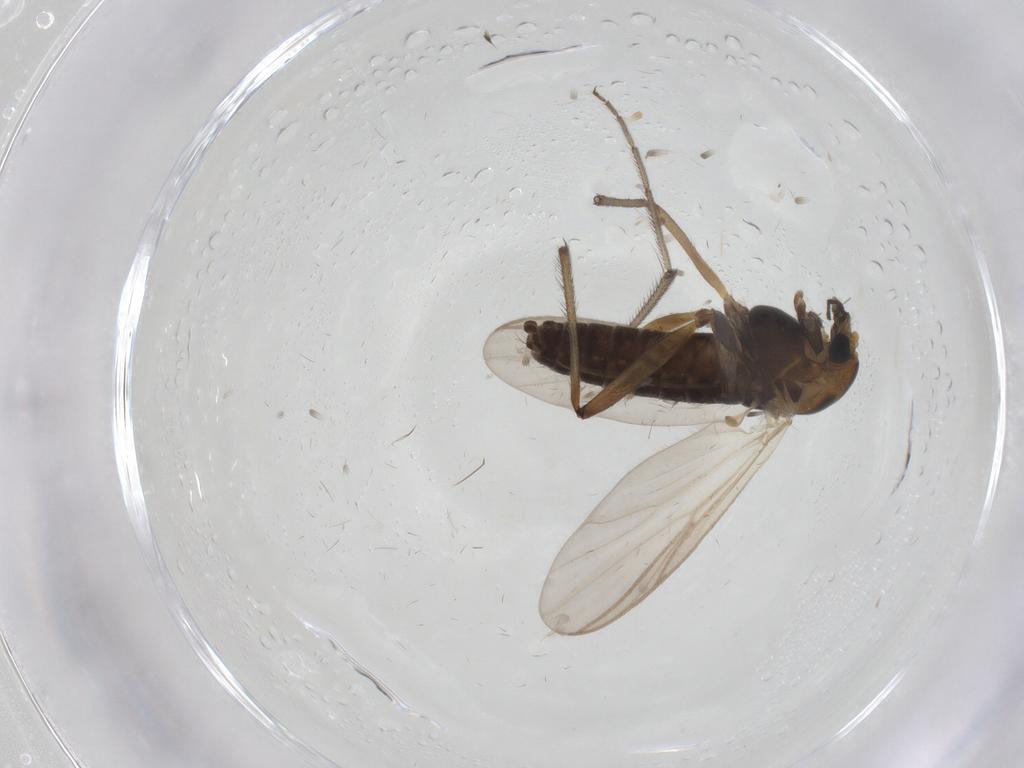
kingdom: Animalia
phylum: Arthropoda
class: Insecta
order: Diptera
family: Chironomidae
